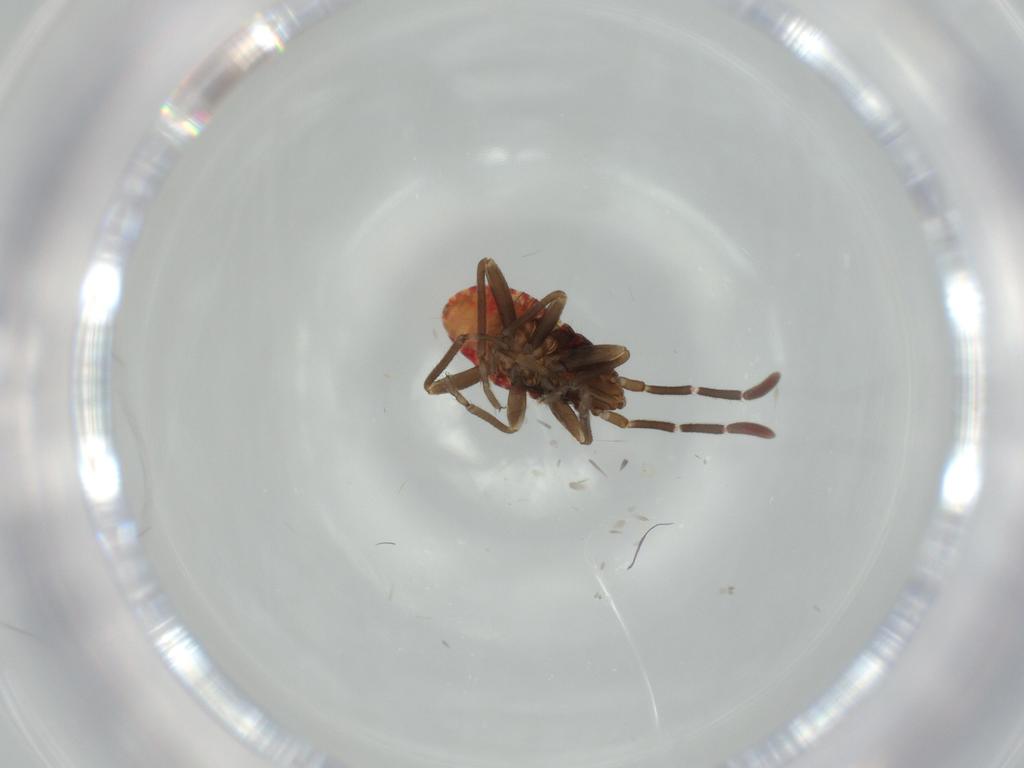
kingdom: Animalia
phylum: Arthropoda
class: Insecta
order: Hemiptera
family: Rhyparochromidae
